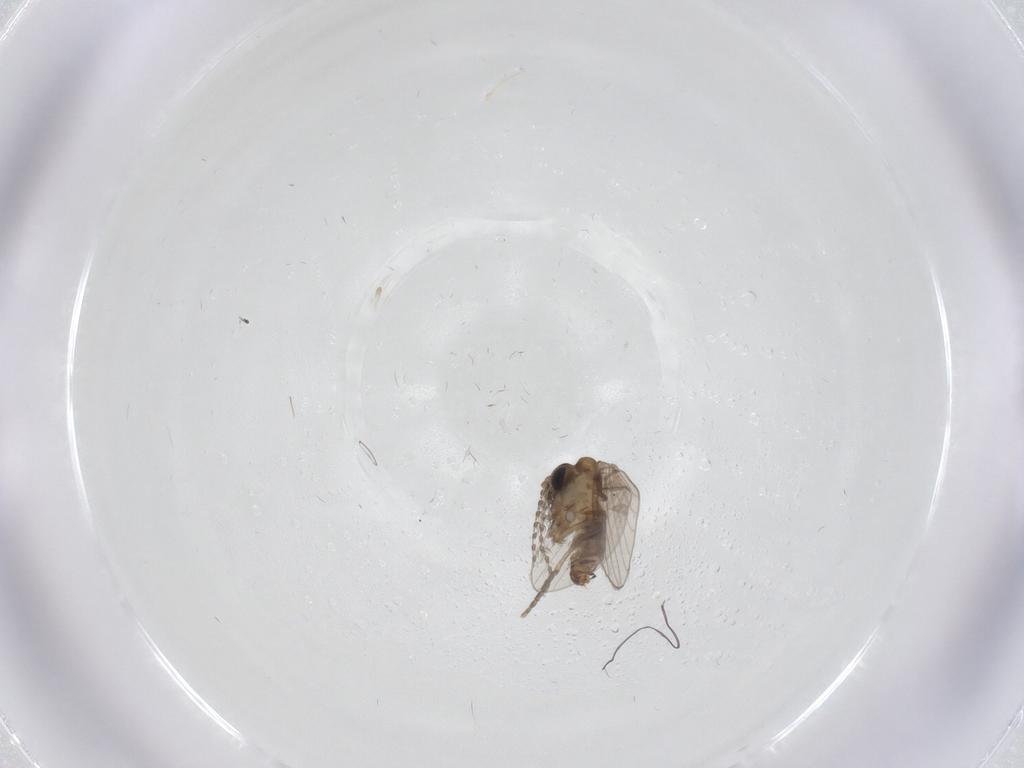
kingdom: Animalia
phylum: Arthropoda
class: Insecta
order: Diptera
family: Psychodidae
